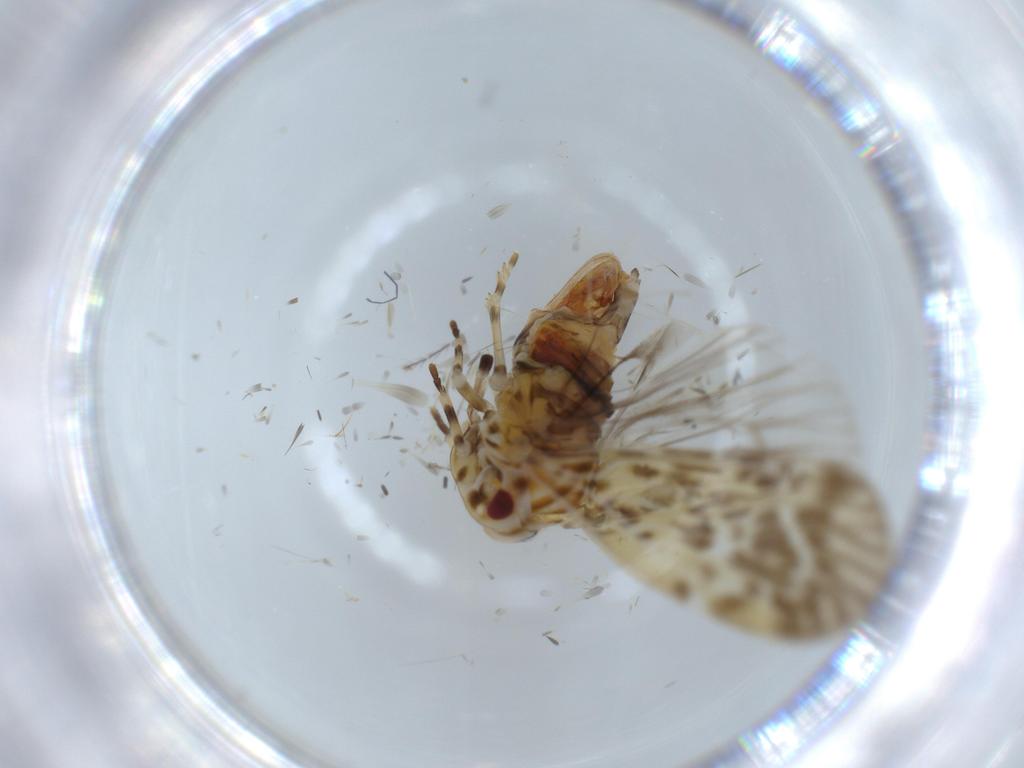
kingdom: Animalia
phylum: Arthropoda
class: Insecta
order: Hemiptera
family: Derbidae
